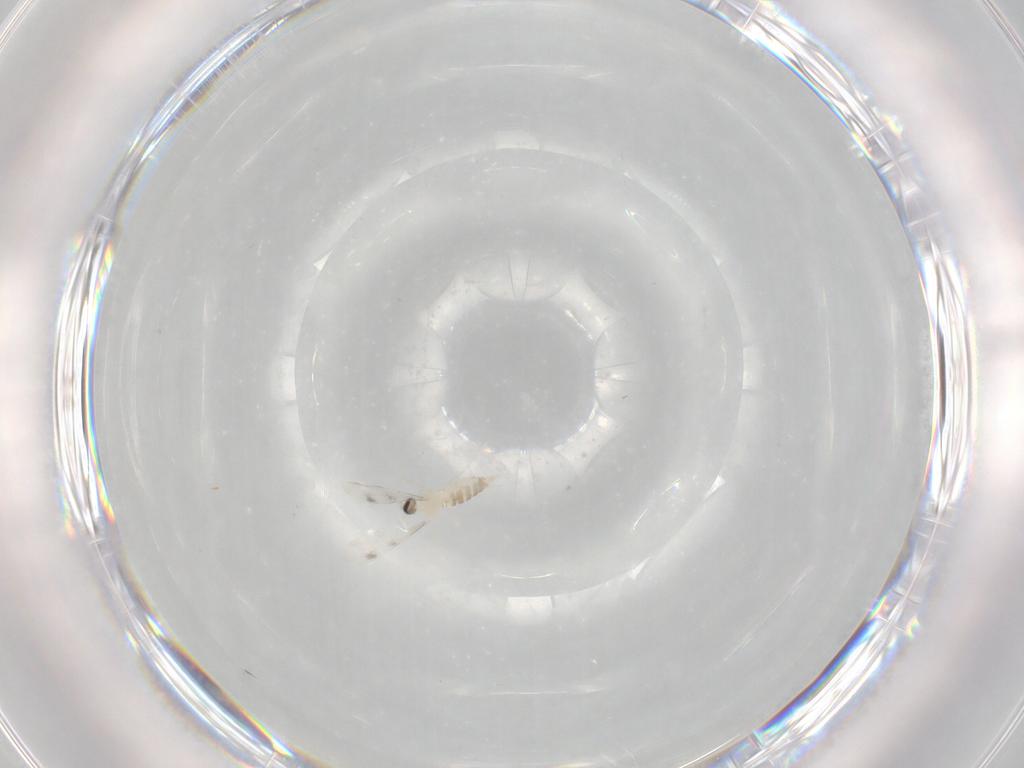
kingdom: Animalia
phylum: Arthropoda
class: Insecta
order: Diptera
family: Cecidomyiidae
